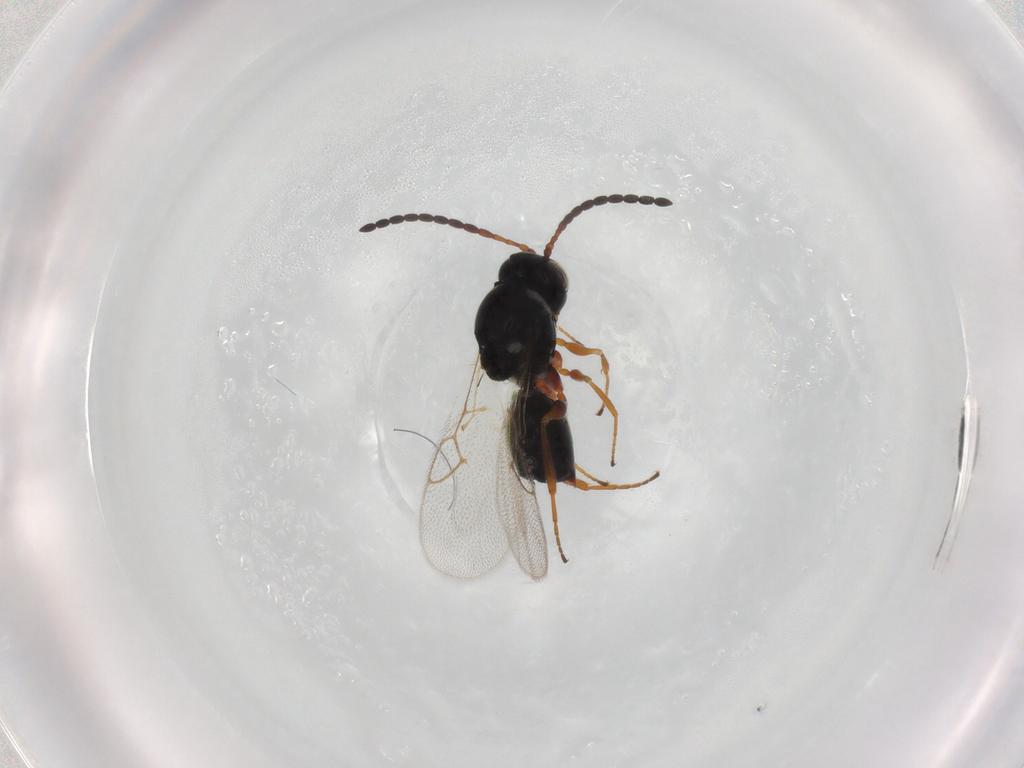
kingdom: Animalia
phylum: Arthropoda
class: Insecta
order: Hymenoptera
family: Figitidae
